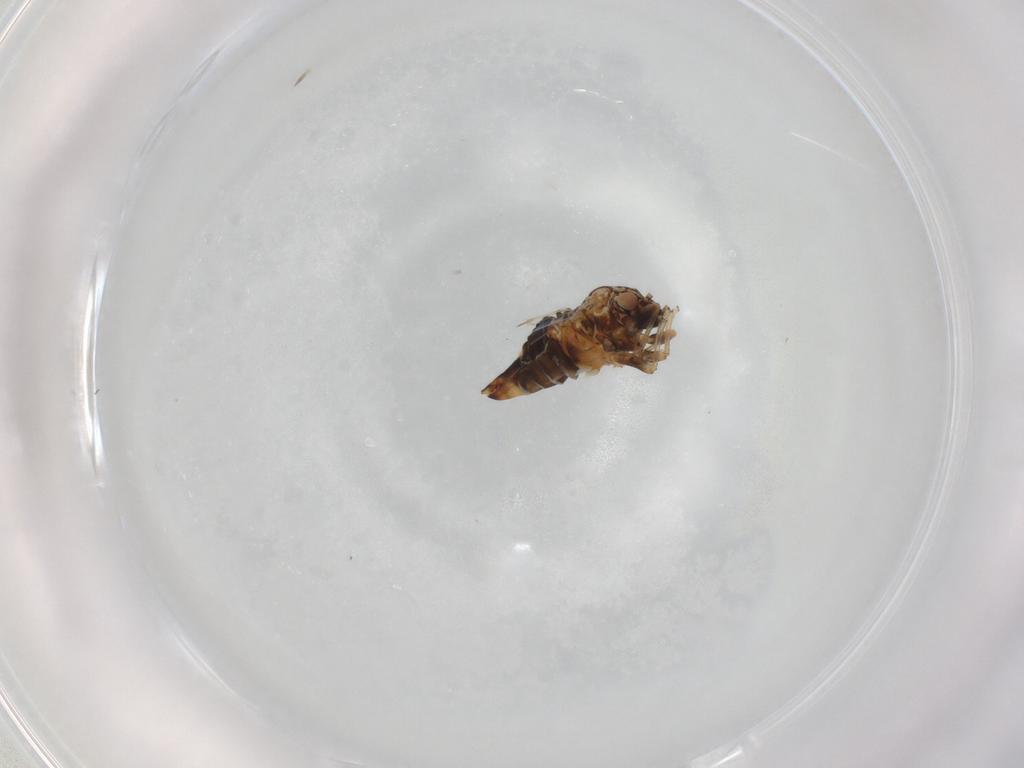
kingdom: Animalia
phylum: Arthropoda
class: Insecta
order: Hemiptera
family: Psyllidae
